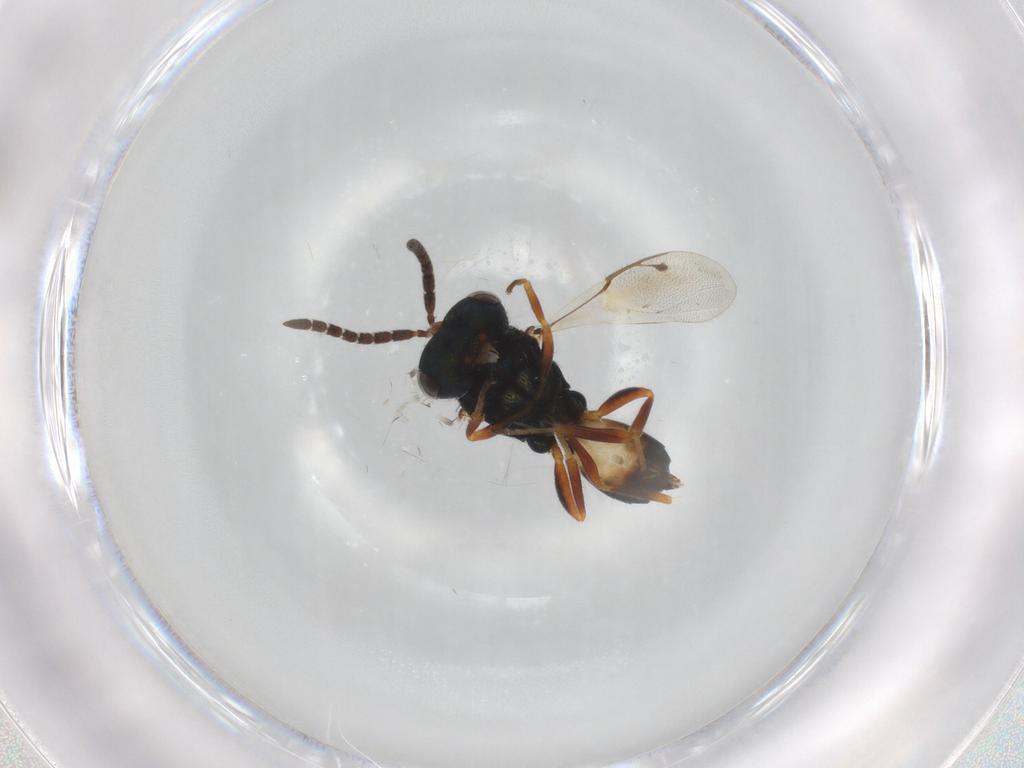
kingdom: Animalia
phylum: Arthropoda
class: Insecta
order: Hymenoptera
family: Pteromalidae
